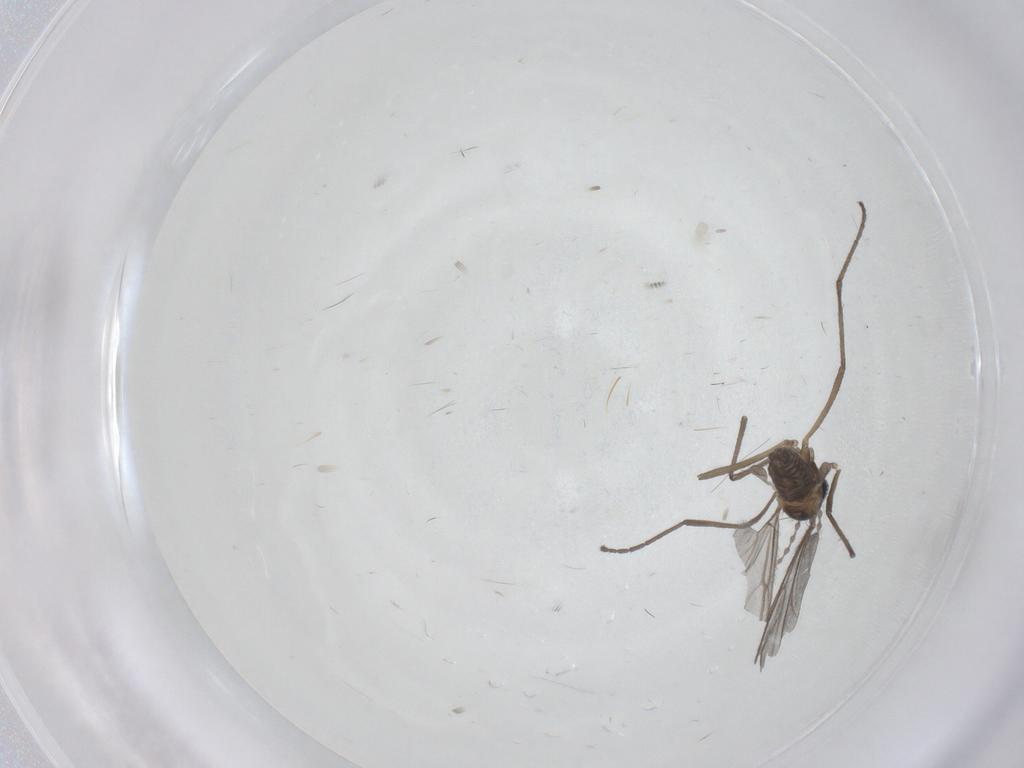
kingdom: Animalia
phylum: Arthropoda
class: Insecta
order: Diptera
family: Cecidomyiidae
